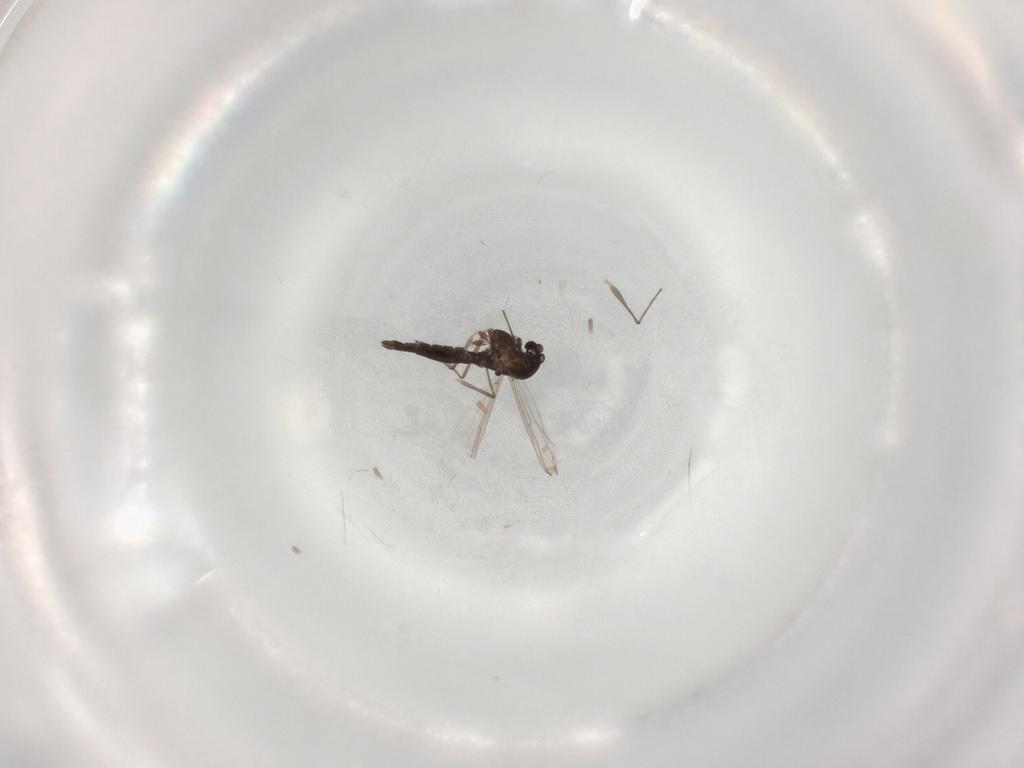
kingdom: Animalia
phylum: Arthropoda
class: Insecta
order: Diptera
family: Chironomidae
